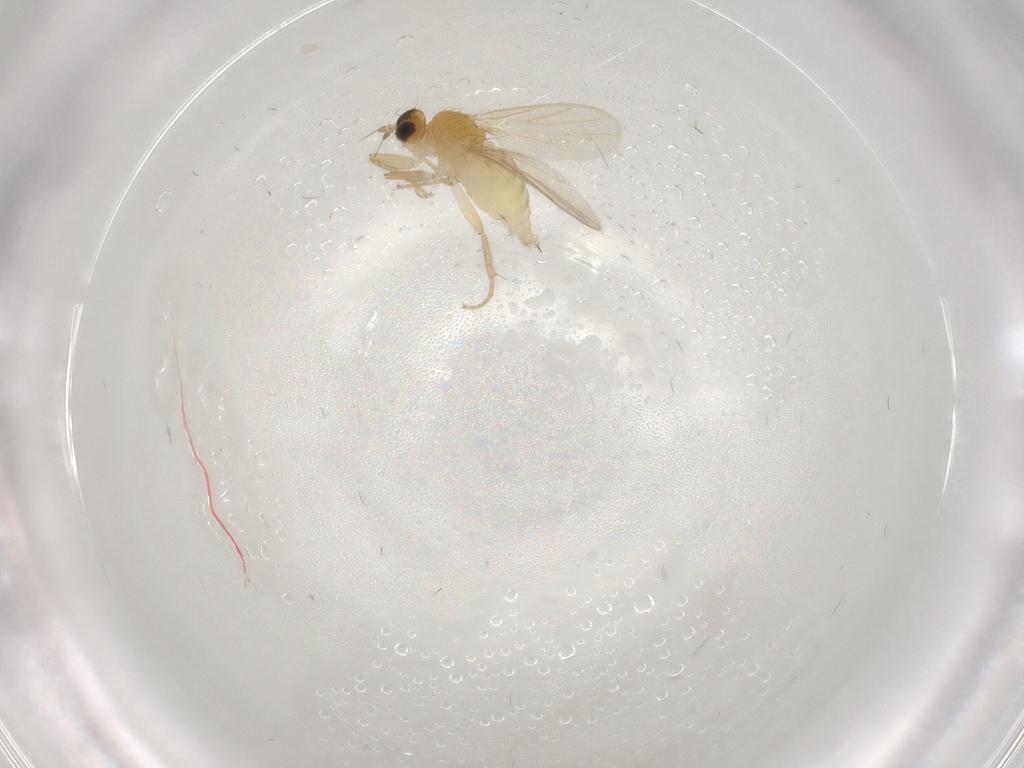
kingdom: Animalia
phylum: Arthropoda
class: Insecta
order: Diptera
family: Hybotidae
